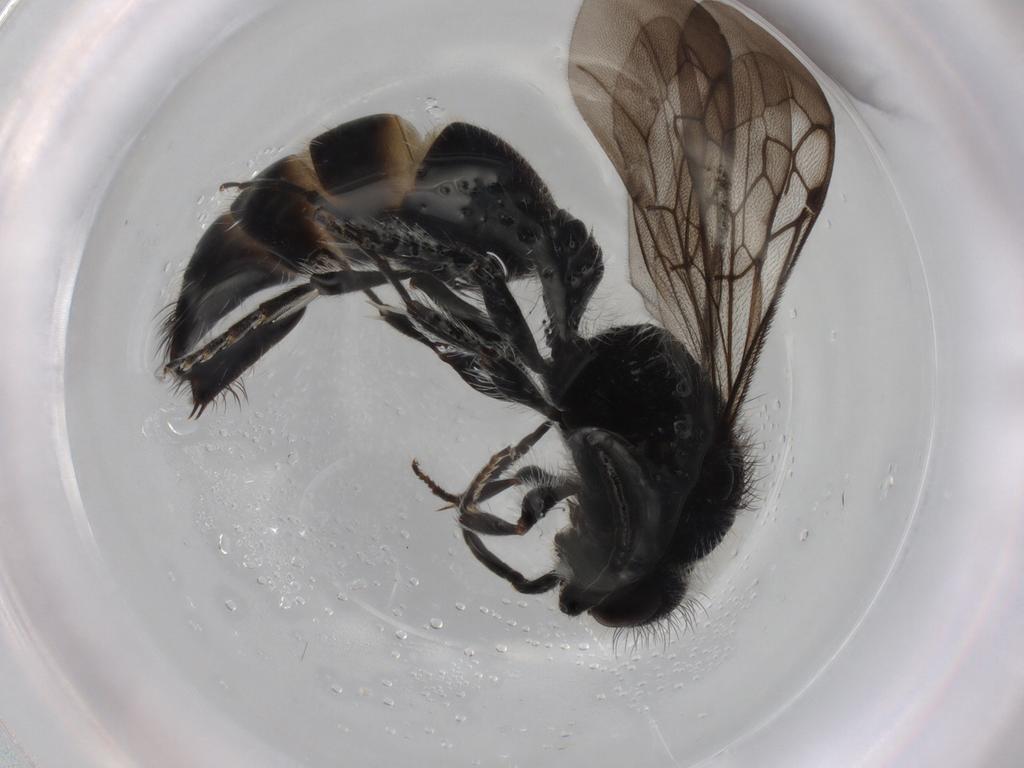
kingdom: Animalia
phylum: Arthropoda
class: Insecta
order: Hymenoptera
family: Mutillidae
